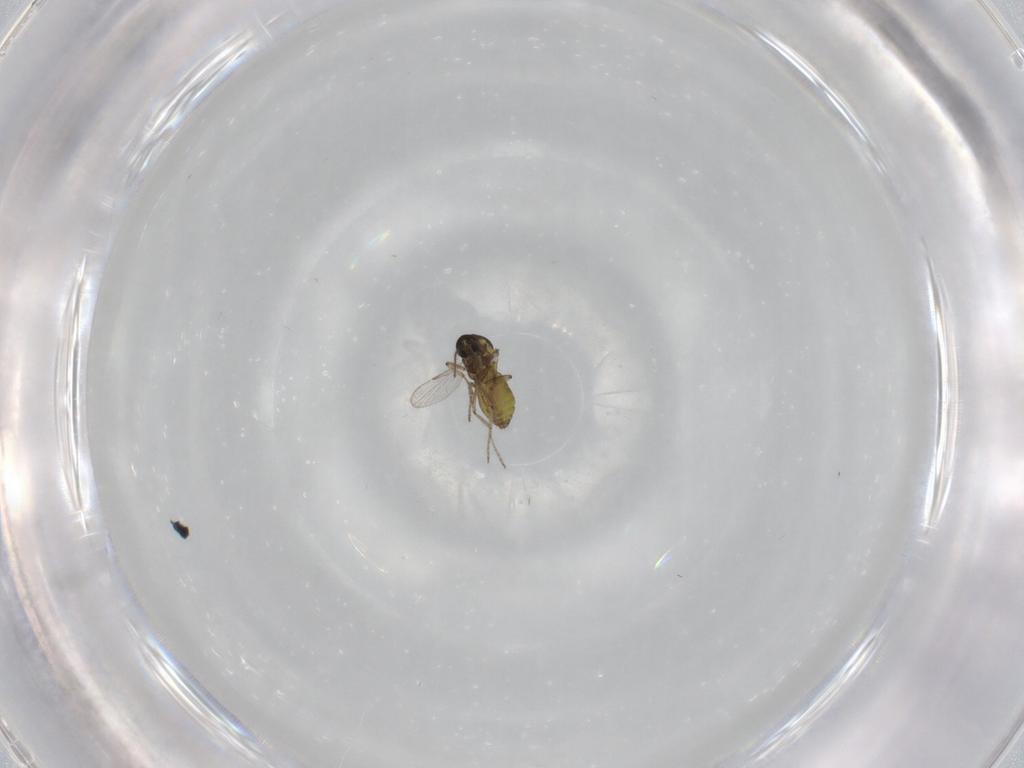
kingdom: Animalia
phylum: Arthropoda
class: Insecta
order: Diptera
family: Ceratopogonidae
